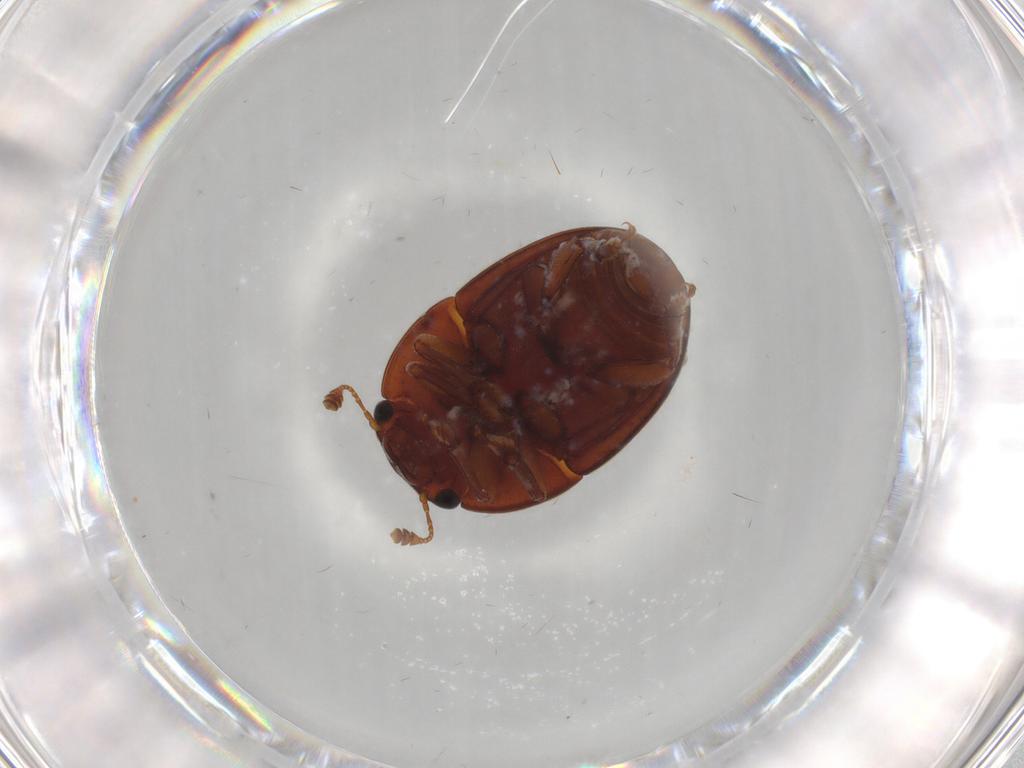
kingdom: Animalia
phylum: Arthropoda
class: Insecta
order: Coleoptera
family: Nitidulidae
